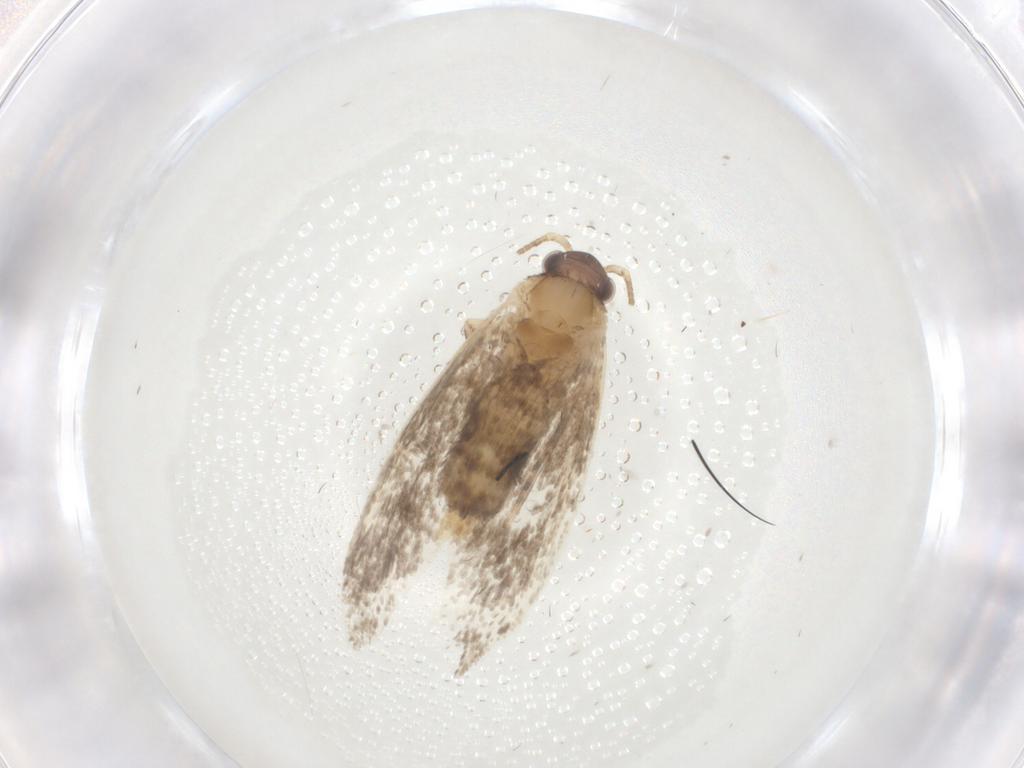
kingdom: Animalia
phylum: Arthropoda
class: Insecta
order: Lepidoptera
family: Dryadaulidae
